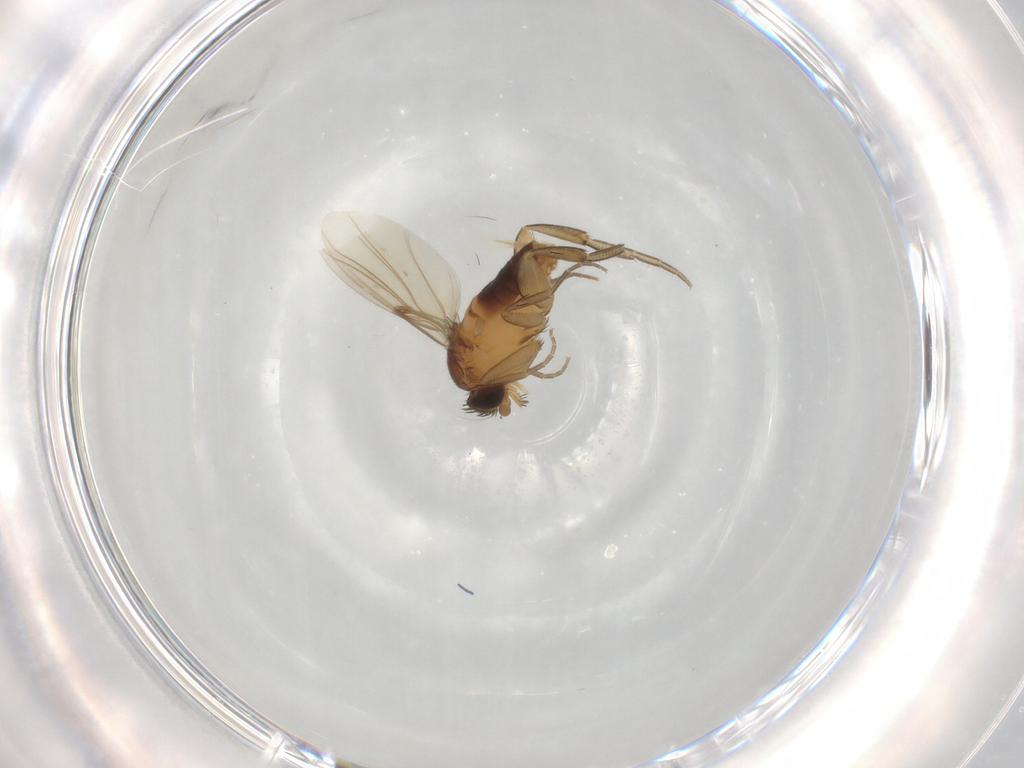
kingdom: Animalia
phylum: Arthropoda
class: Insecta
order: Diptera
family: Phoridae
